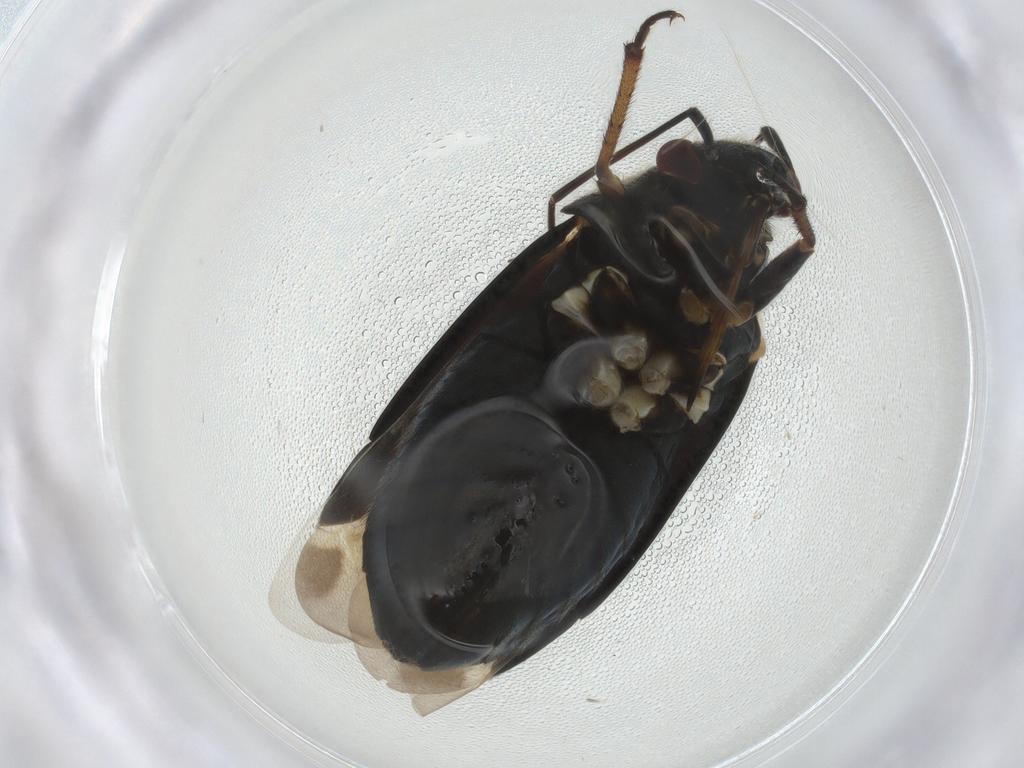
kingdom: Animalia
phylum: Arthropoda
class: Insecta
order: Hemiptera
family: Miridae
